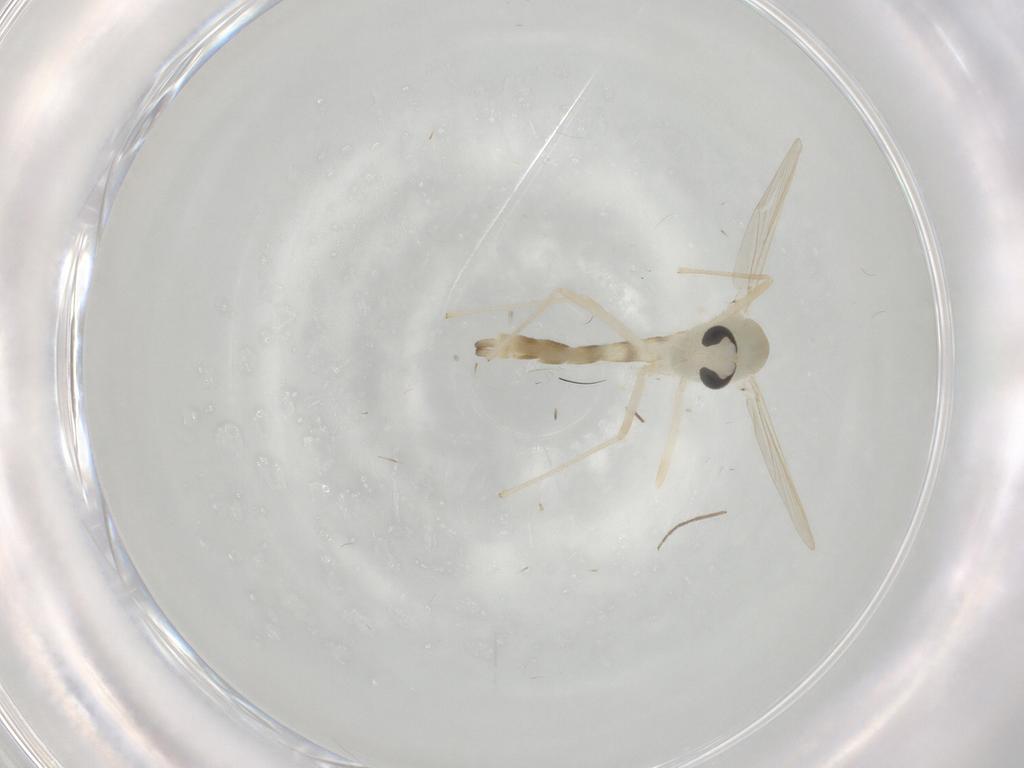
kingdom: Animalia
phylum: Arthropoda
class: Insecta
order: Diptera
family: Chironomidae
